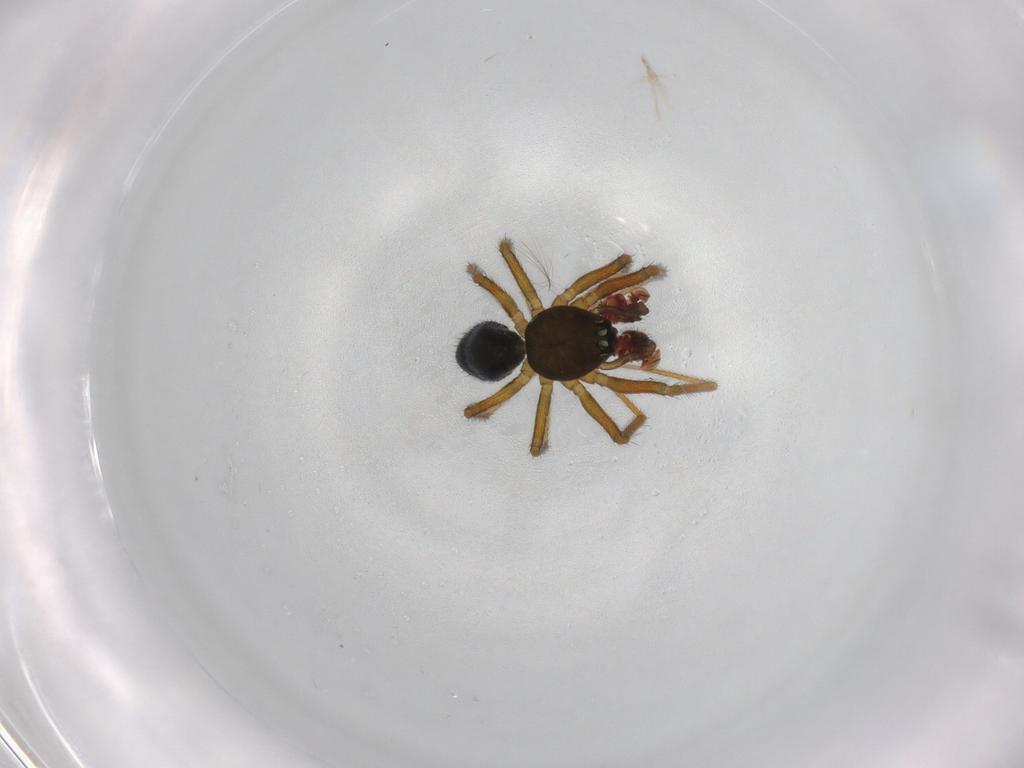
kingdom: Animalia
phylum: Arthropoda
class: Arachnida
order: Araneae
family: Linyphiidae
